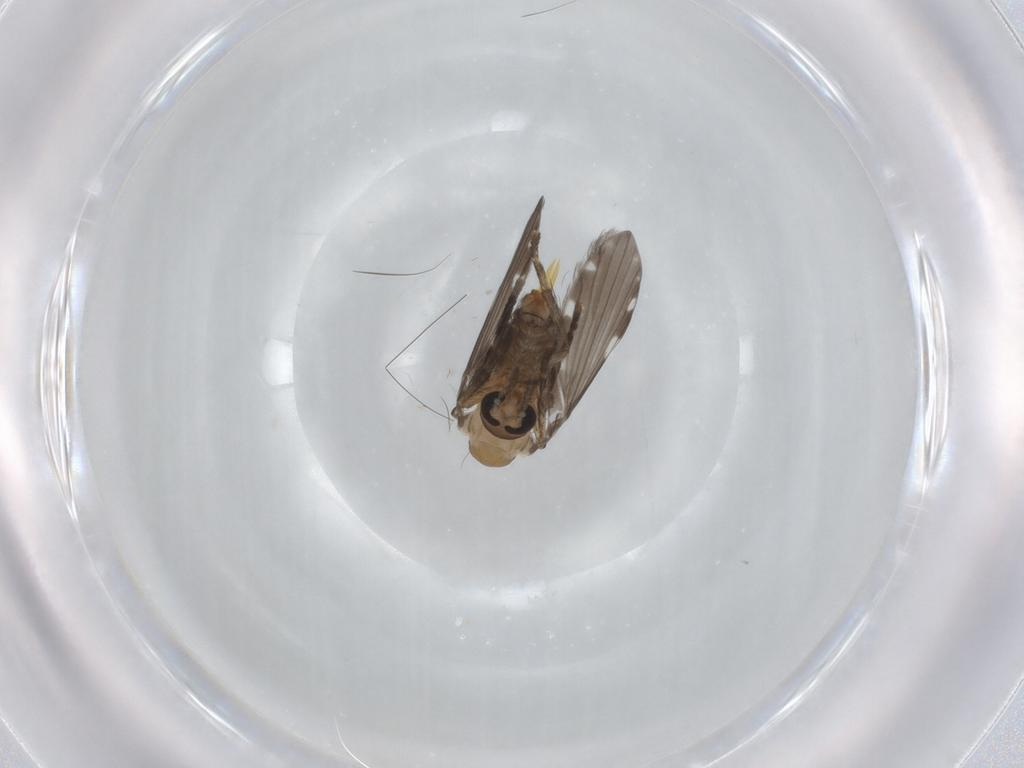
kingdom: Animalia
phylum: Arthropoda
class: Insecta
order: Diptera
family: Psychodidae
